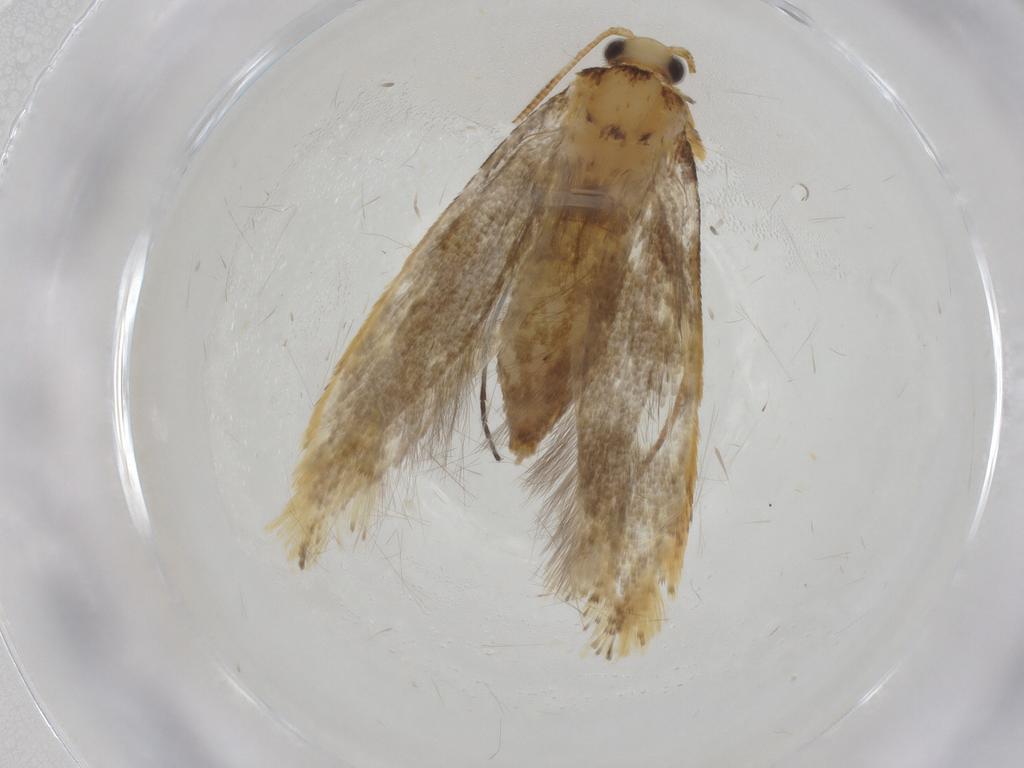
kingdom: Animalia
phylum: Arthropoda
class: Insecta
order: Lepidoptera
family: Tineidae
